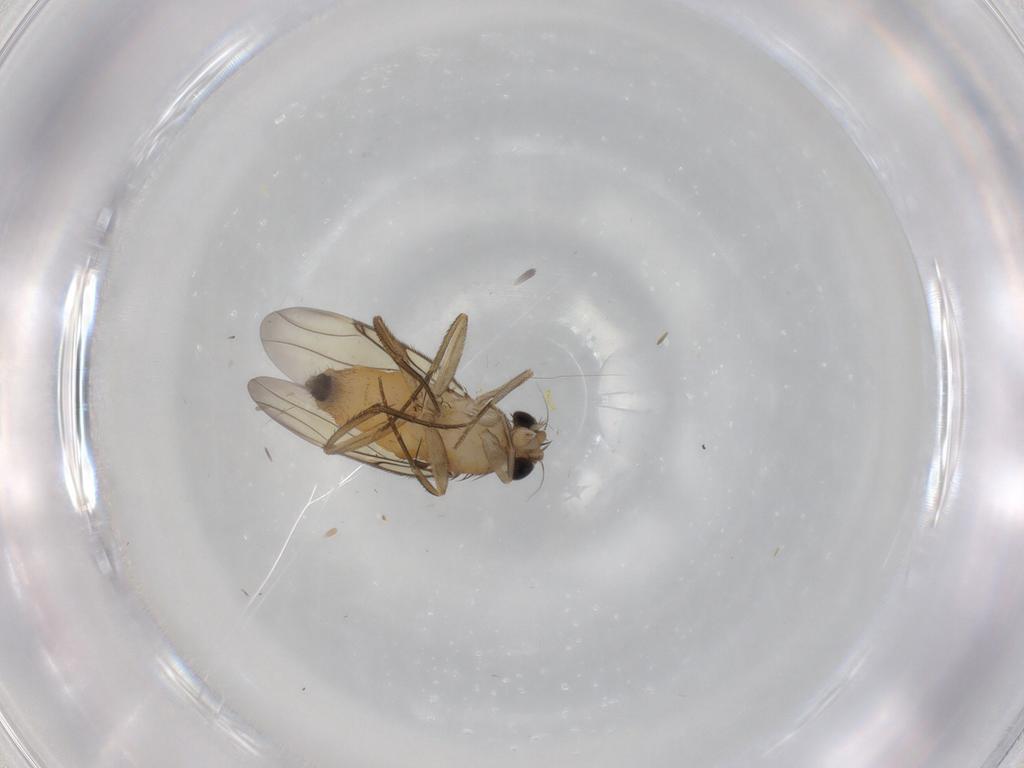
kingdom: Animalia
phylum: Arthropoda
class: Insecta
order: Diptera
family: Phoridae
